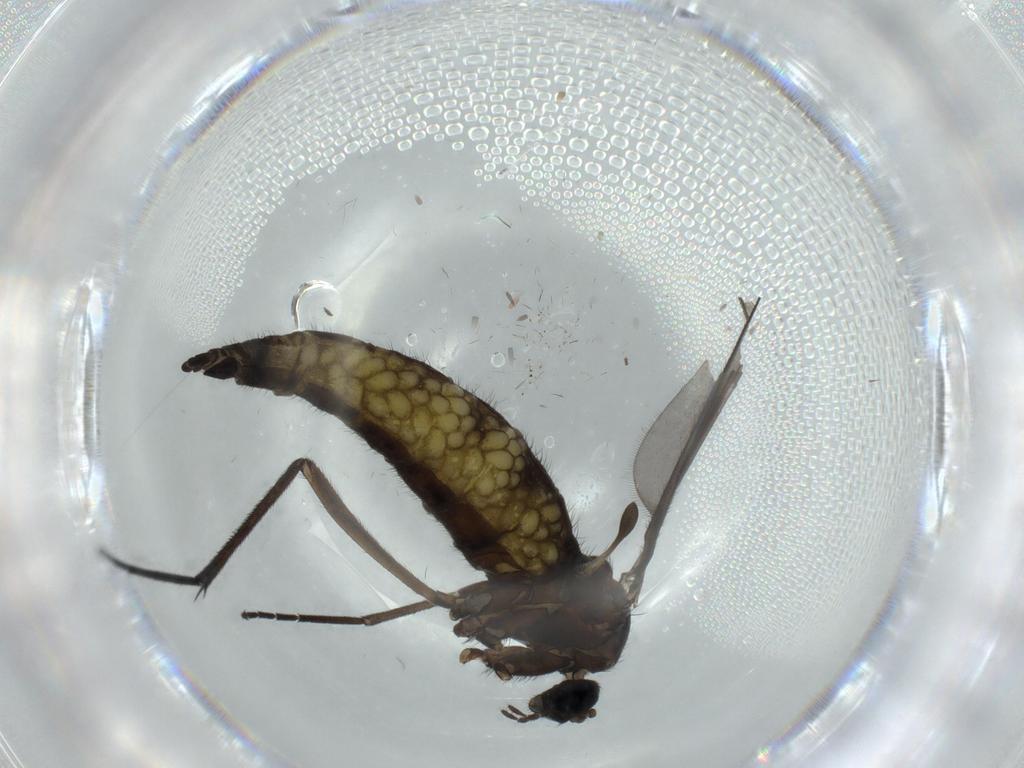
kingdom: Animalia
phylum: Arthropoda
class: Insecta
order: Diptera
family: Sciaridae
